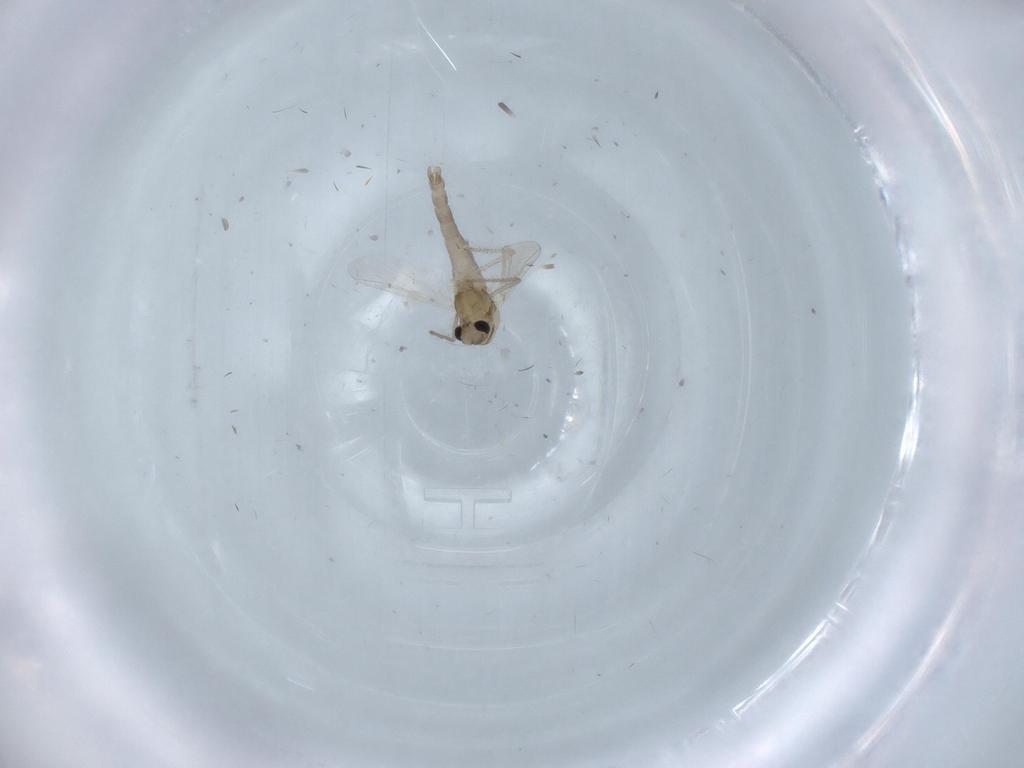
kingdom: Animalia
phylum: Arthropoda
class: Insecta
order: Diptera
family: Chironomidae
